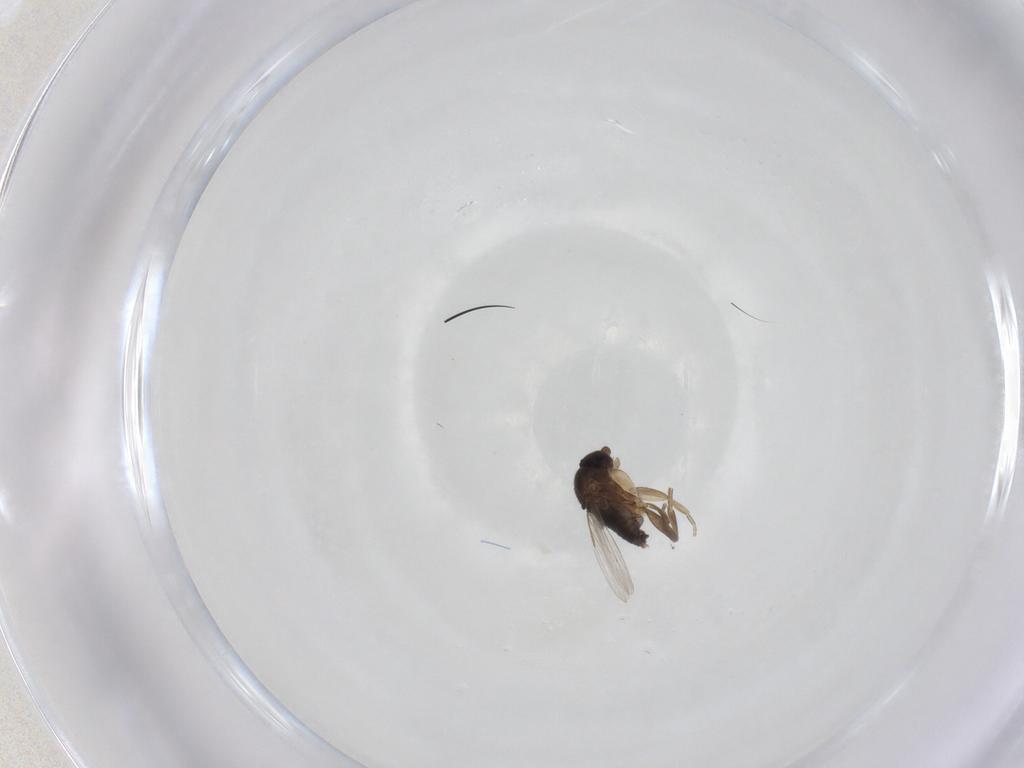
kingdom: Animalia
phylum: Arthropoda
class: Insecta
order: Diptera
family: Phoridae
